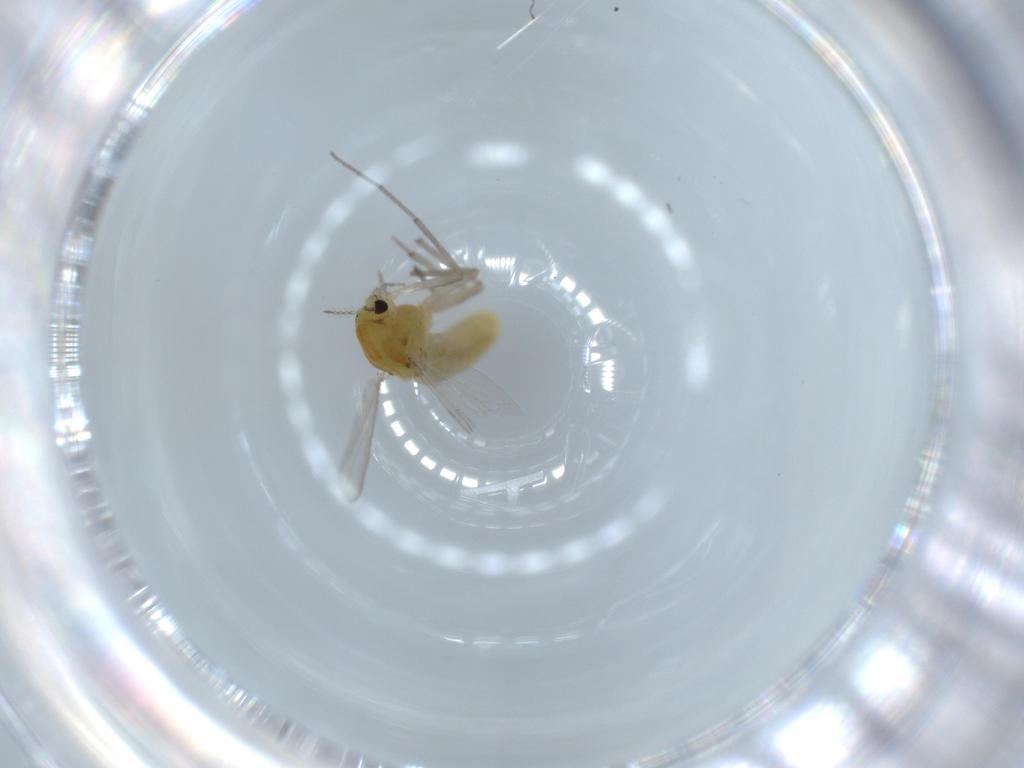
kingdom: Animalia
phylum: Arthropoda
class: Insecta
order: Diptera
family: Chironomidae
